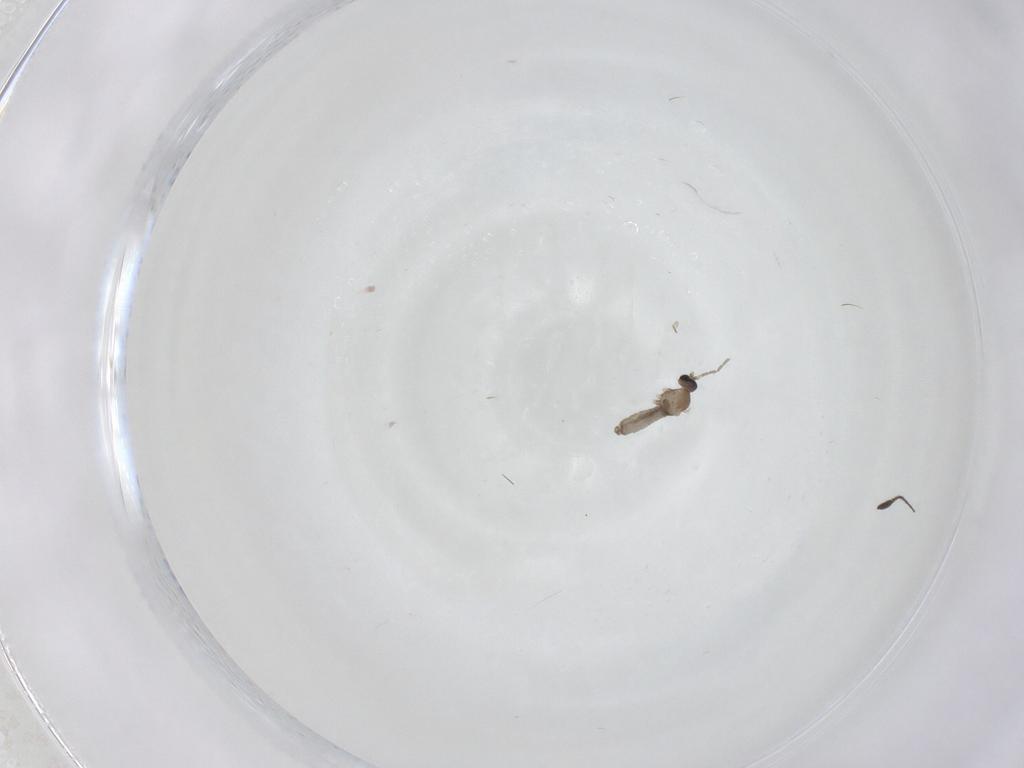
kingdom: Animalia
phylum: Arthropoda
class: Insecta
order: Diptera
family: Cecidomyiidae
